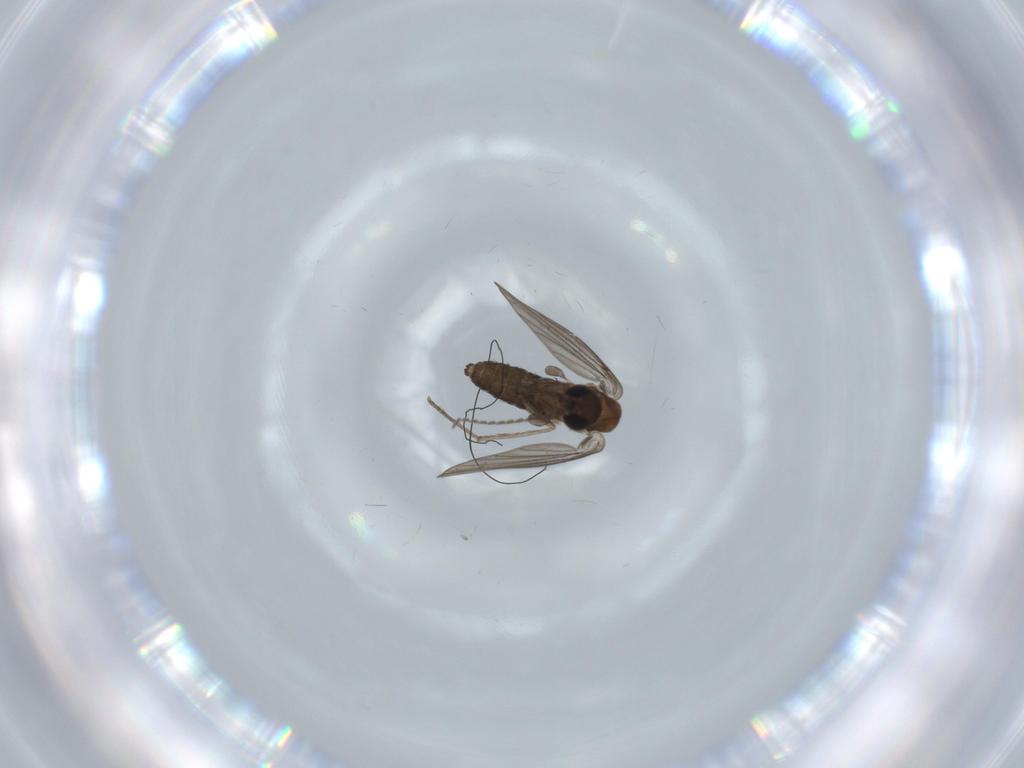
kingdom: Animalia
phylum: Arthropoda
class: Insecta
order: Diptera
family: Psychodidae
